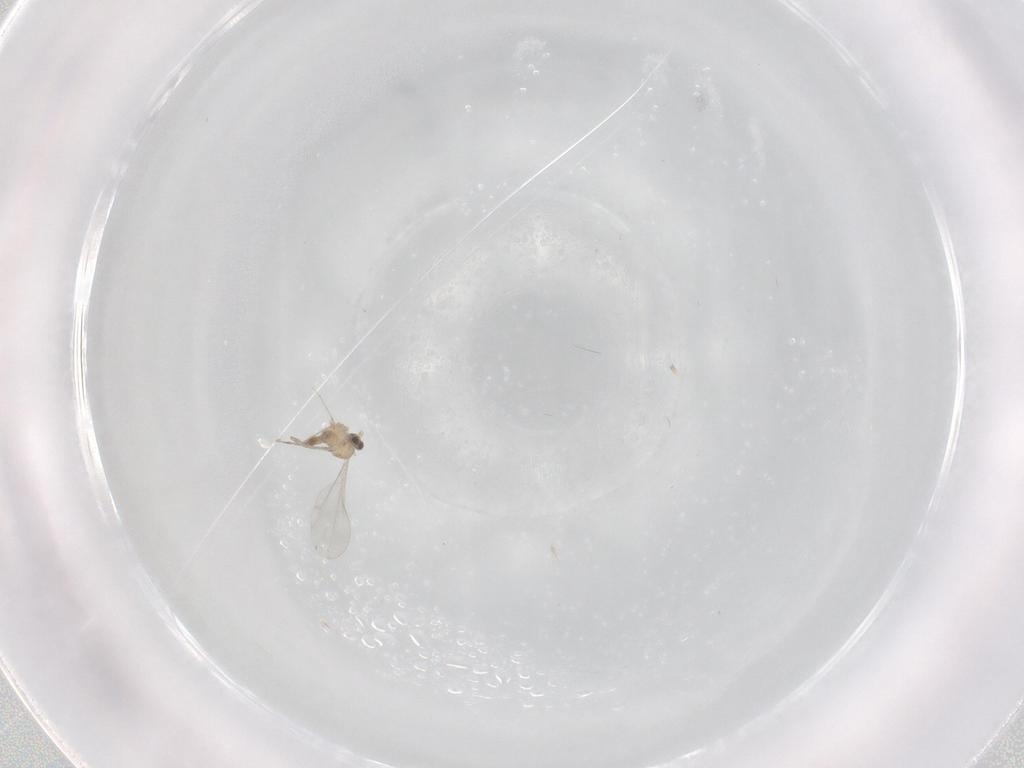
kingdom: Animalia
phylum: Arthropoda
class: Insecta
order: Diptera
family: Scatopsidae
